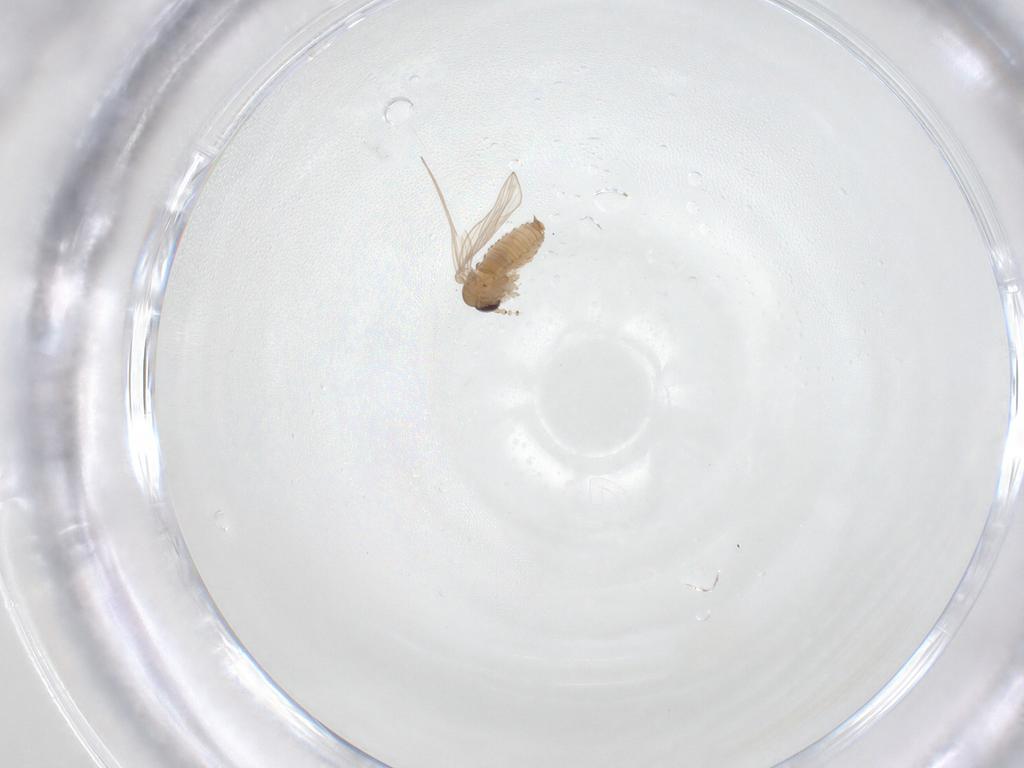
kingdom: Animalia
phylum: Arthropoda
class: Insecta
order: Diptera
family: Psychodidae
